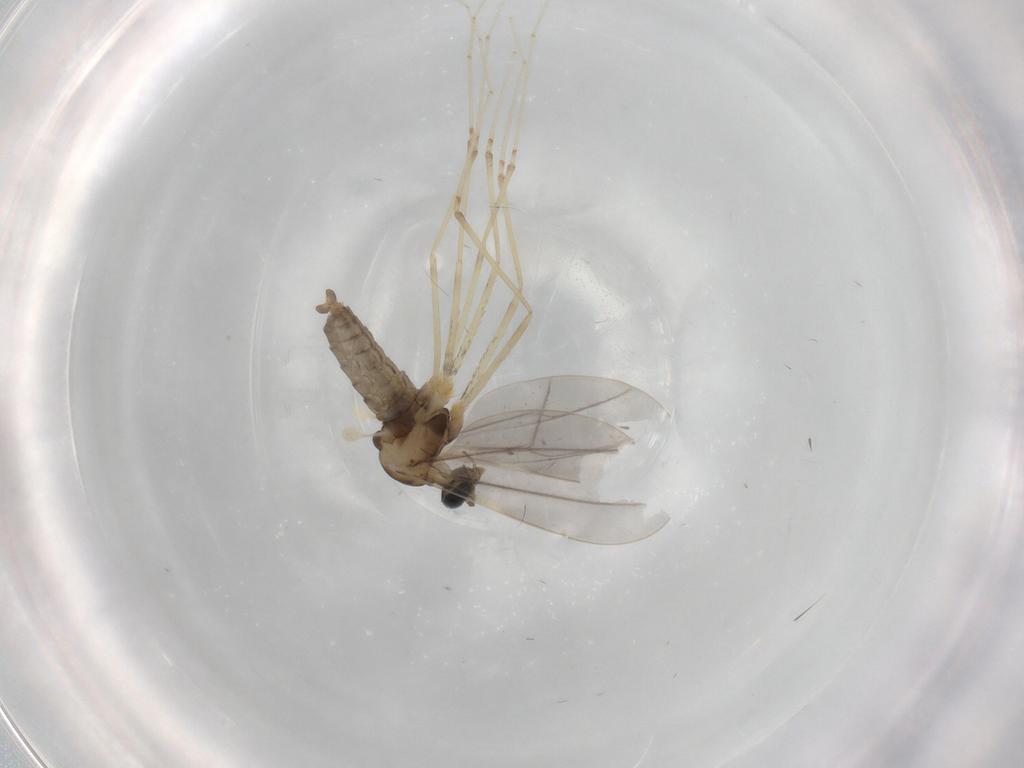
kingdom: Animalia
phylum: Arthropoda
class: Insecta
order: Diptera
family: Cecidomyiidae
